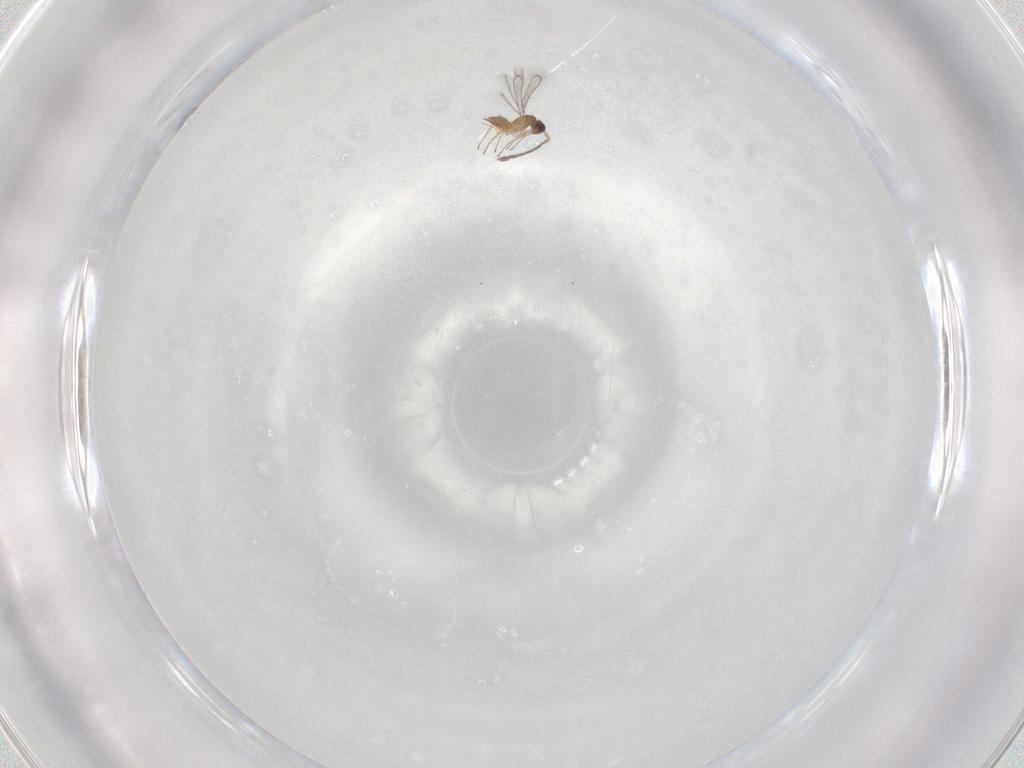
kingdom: Animalia
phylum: Arthropoda
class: Insecta
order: Hymenoptera
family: Mymaridae
